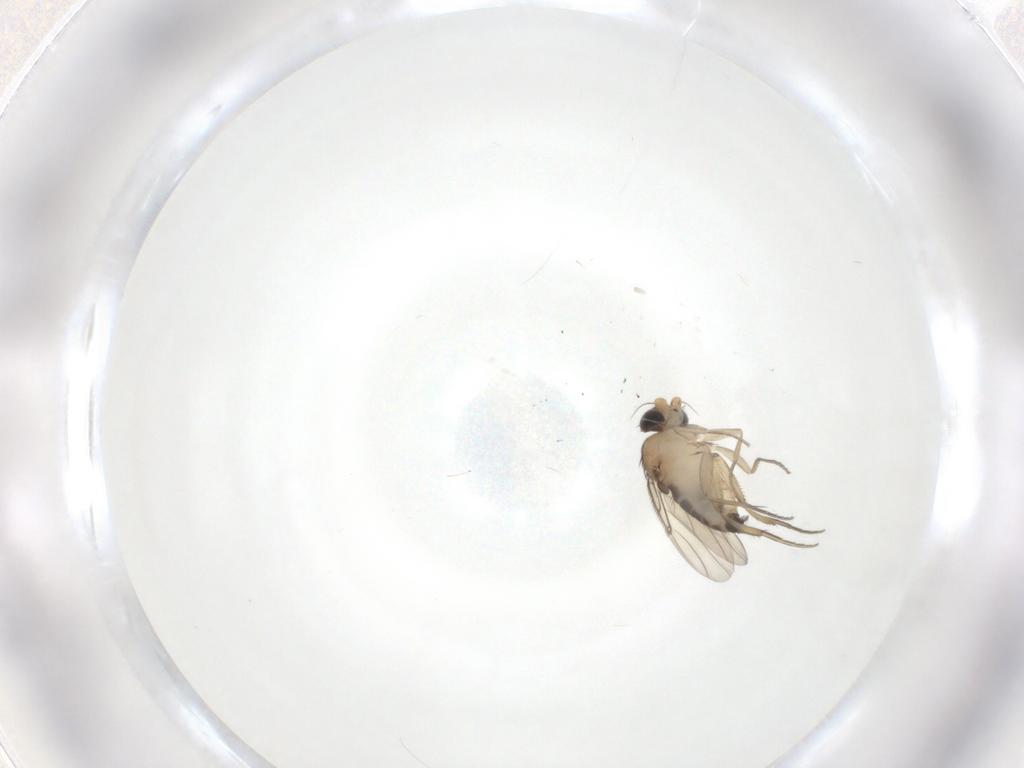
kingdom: Animalia
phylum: Arthropoda
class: Insecta
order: Diptera
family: Phoridae
